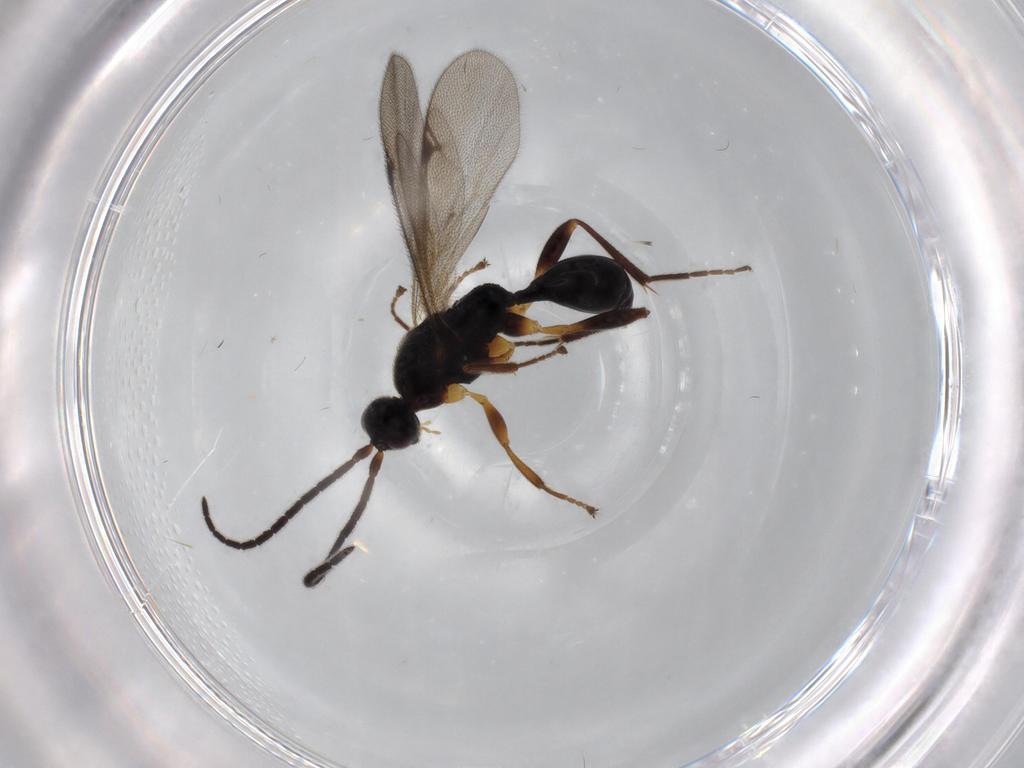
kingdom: Animalia
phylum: Arthropoda
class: Insecta
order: Hymenoptera
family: Proctotrupidae
